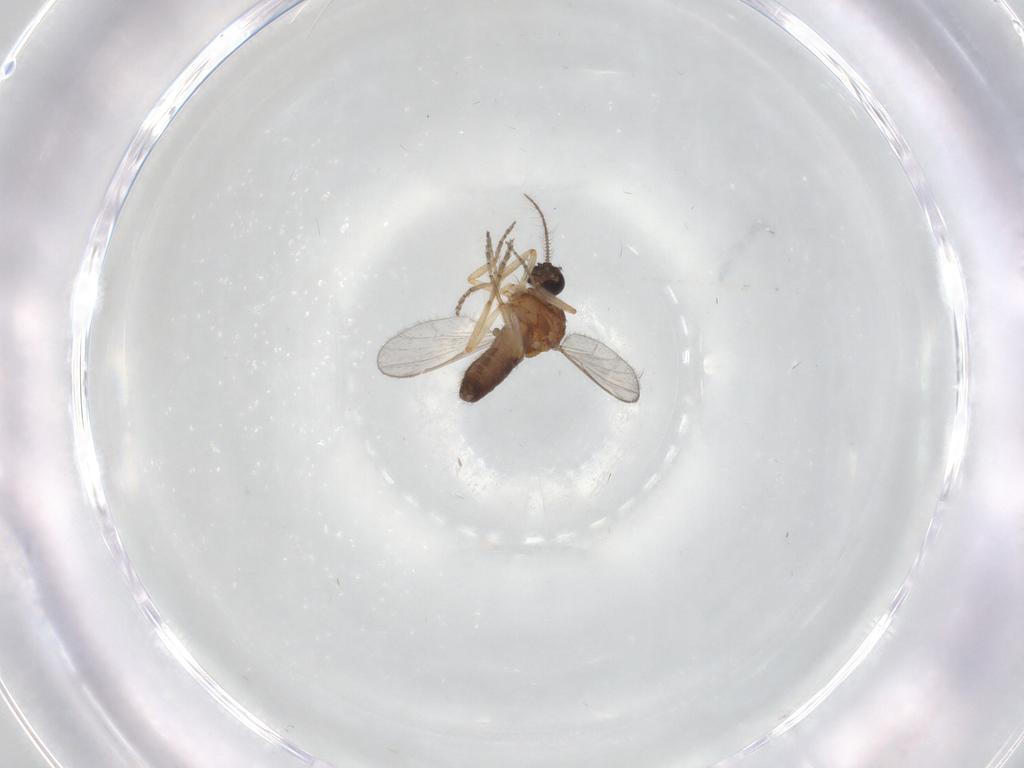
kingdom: Animalia
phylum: Arthropoda
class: Insecta
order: Diptera
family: Ceratopogonidae
